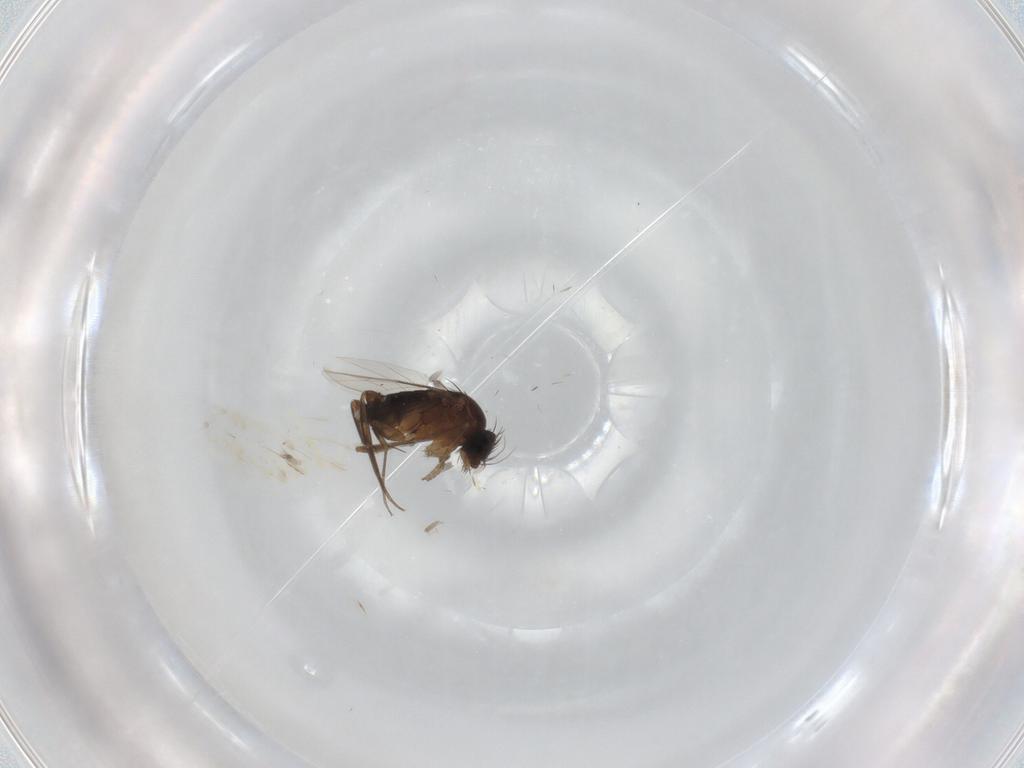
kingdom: Animalia
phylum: Arthropoda
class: Insecta
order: Diptera
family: Muscidae
